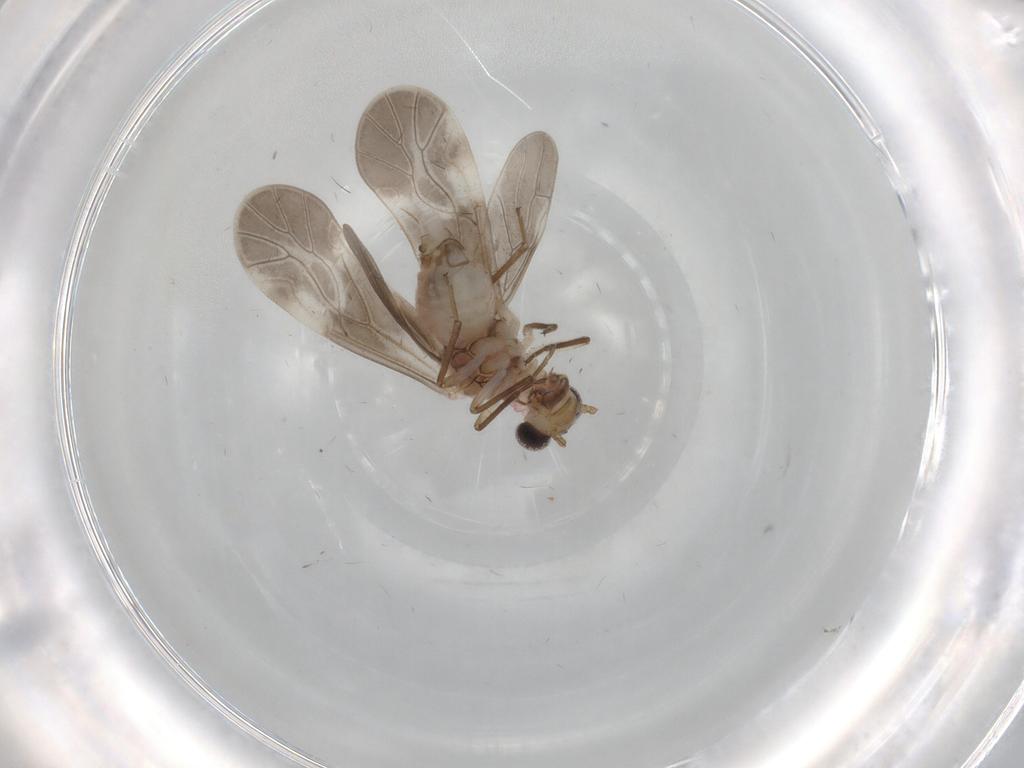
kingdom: Animalia
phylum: Arthropoda
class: Insecta
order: Psocodea
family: Caeciliusidae
